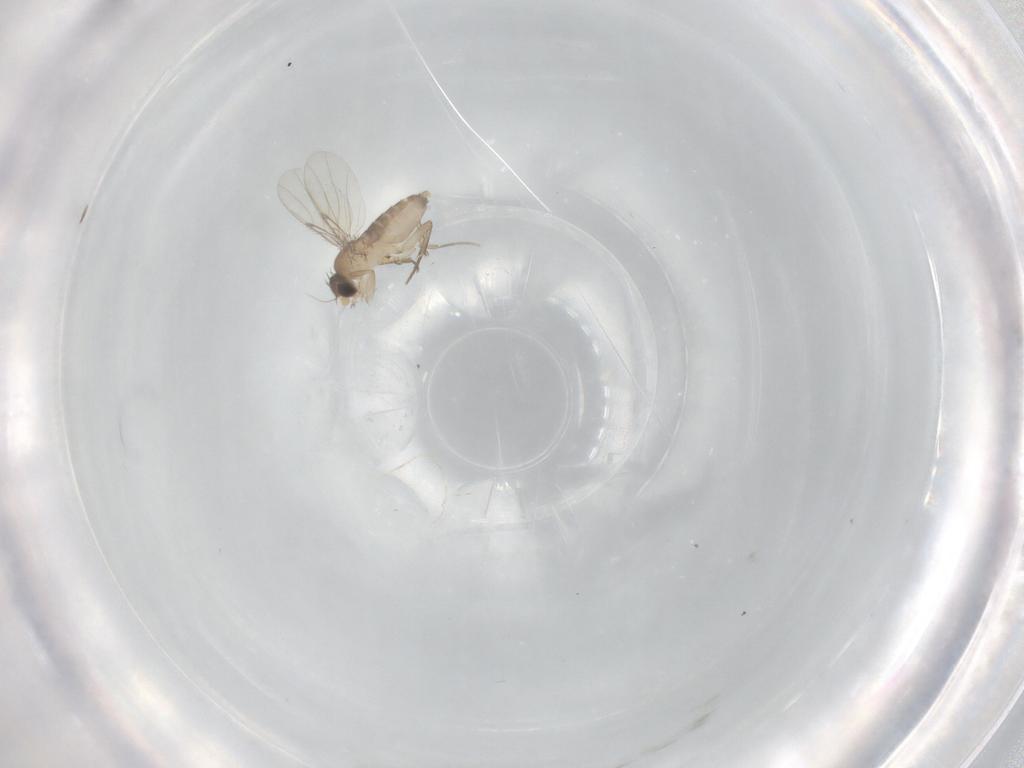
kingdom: Animalia
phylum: Arthropoda
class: Insecta
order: Diptera
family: Phoridae
